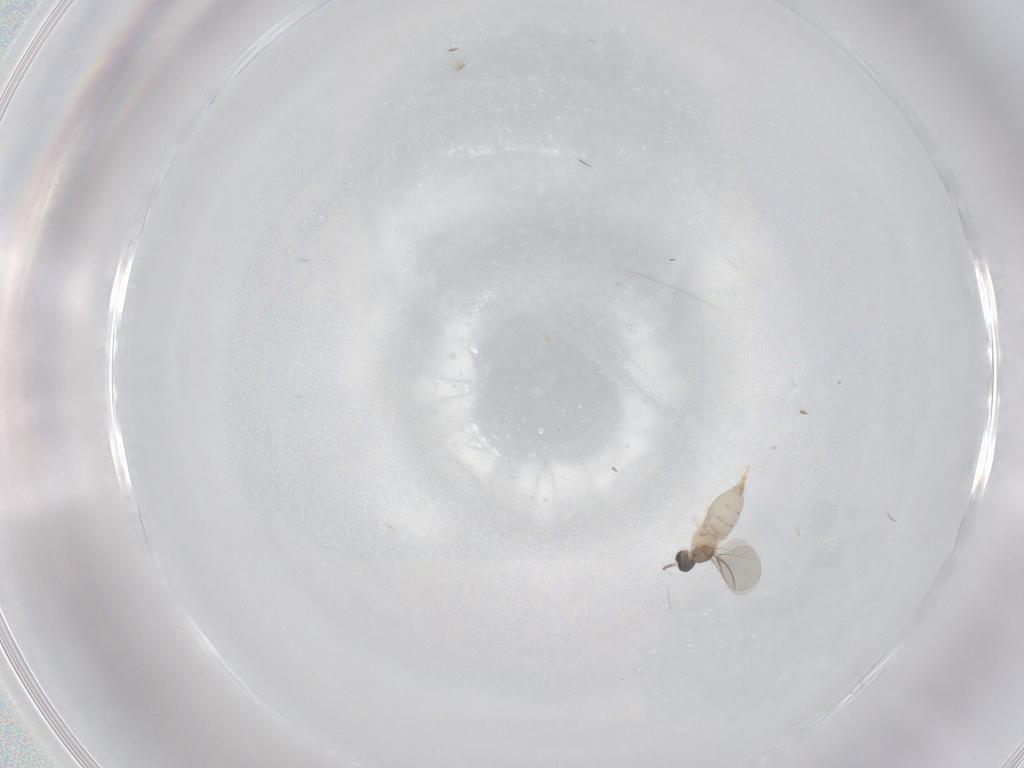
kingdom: Animalia
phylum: Arthropoda
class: Insecta
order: Diptera
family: Cecidomyiidae
